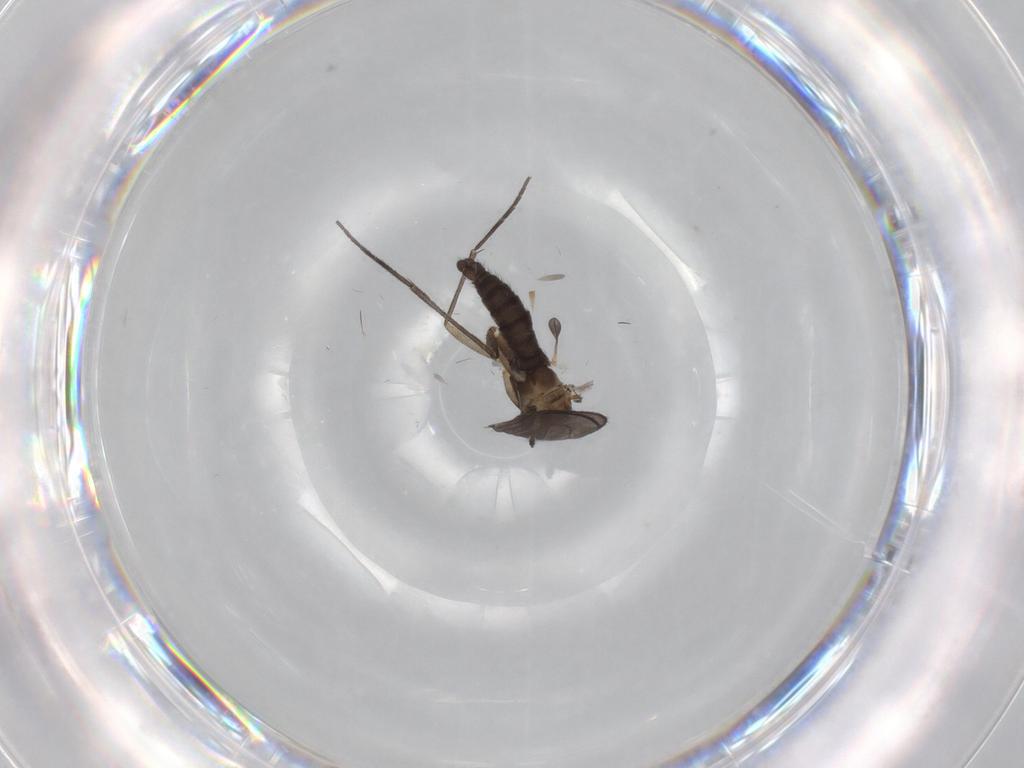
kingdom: Animalia
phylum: Arthropoda
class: Insecta
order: Diptera
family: Sciaridae
